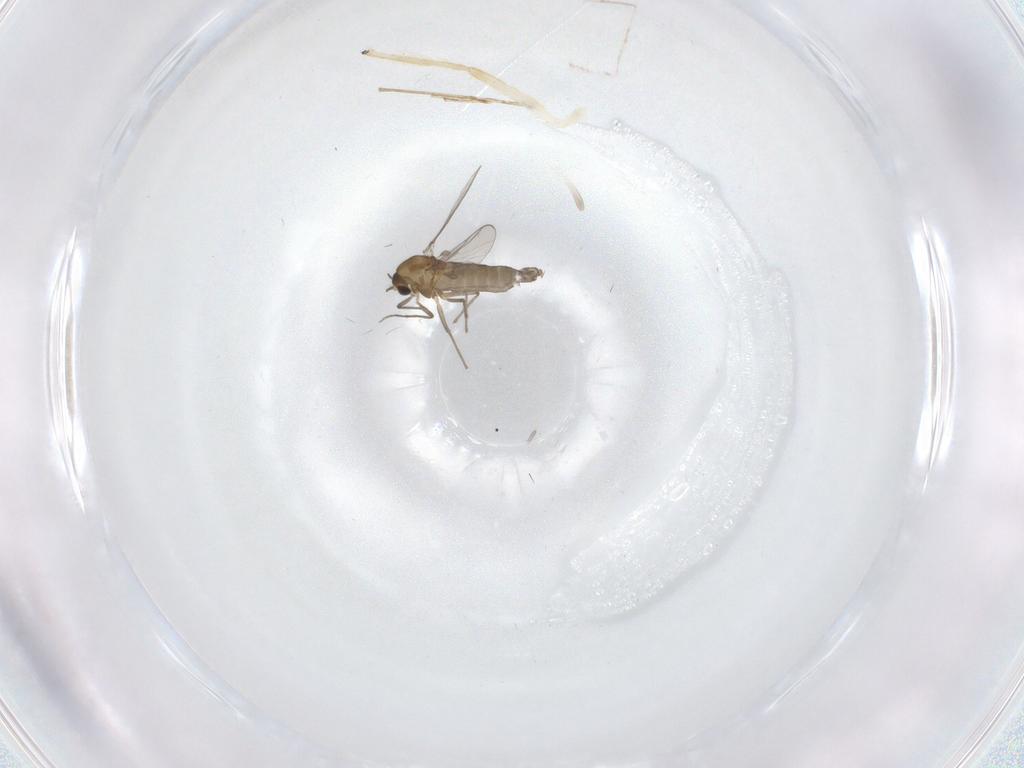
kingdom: Animalia
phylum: Arthropoda
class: Insecta
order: Diptera
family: Chironomidae
